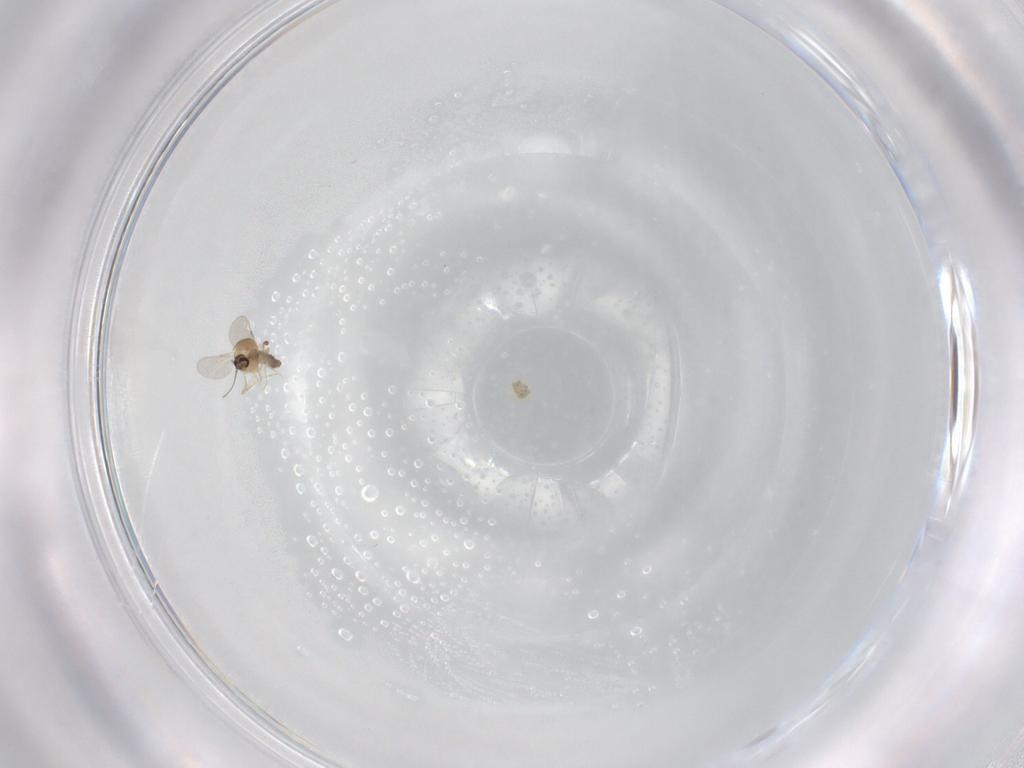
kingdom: Animalia
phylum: Arthropoda
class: Insecta
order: Diptera
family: Ceratopogonidae
